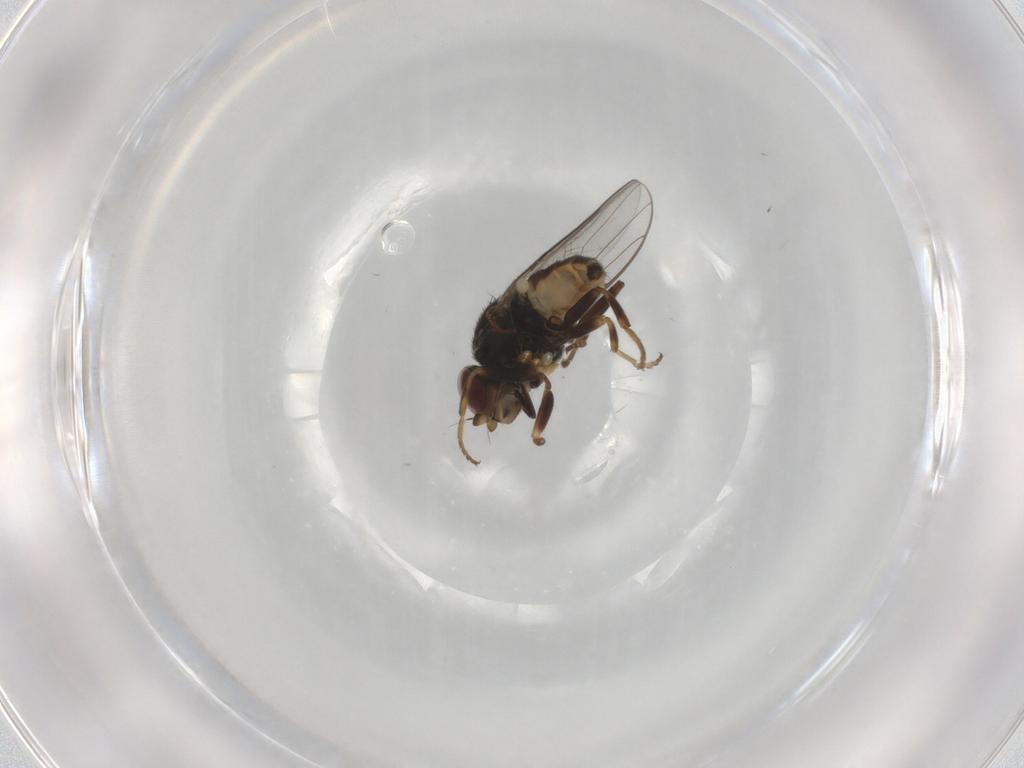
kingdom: Animalia
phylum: Arthropoda
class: Insecta
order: Diptera
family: Chloropidae
